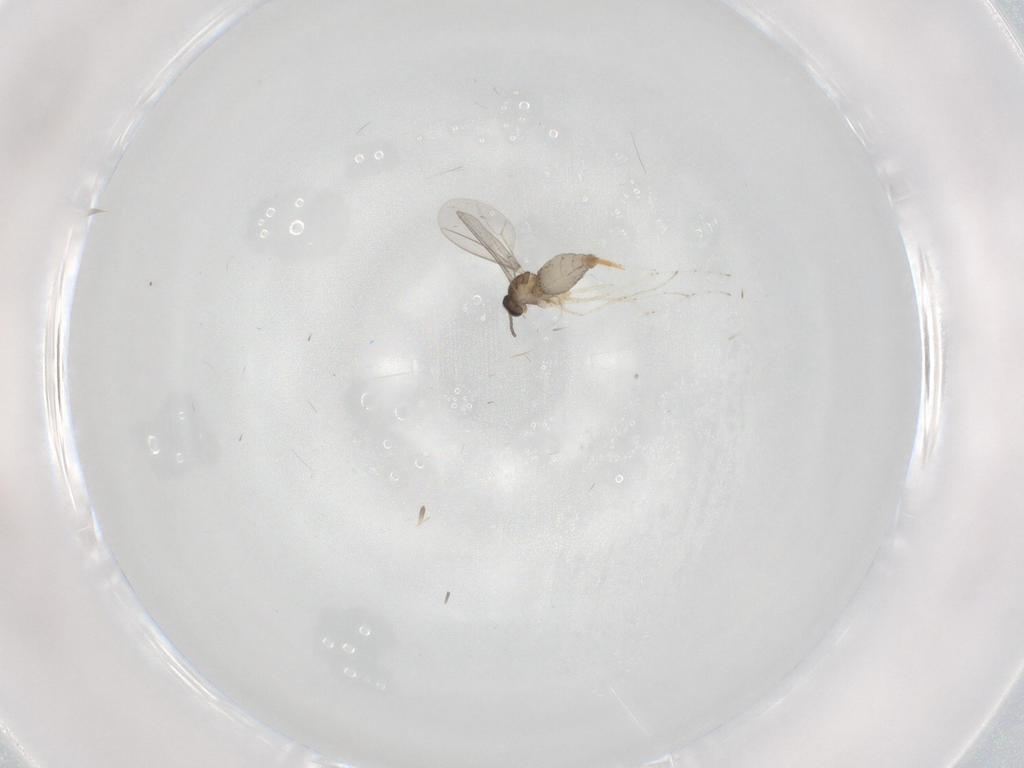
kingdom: Animalia
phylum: Arthropoda
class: Insecta
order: Diptera
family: Cecidomyiidae
